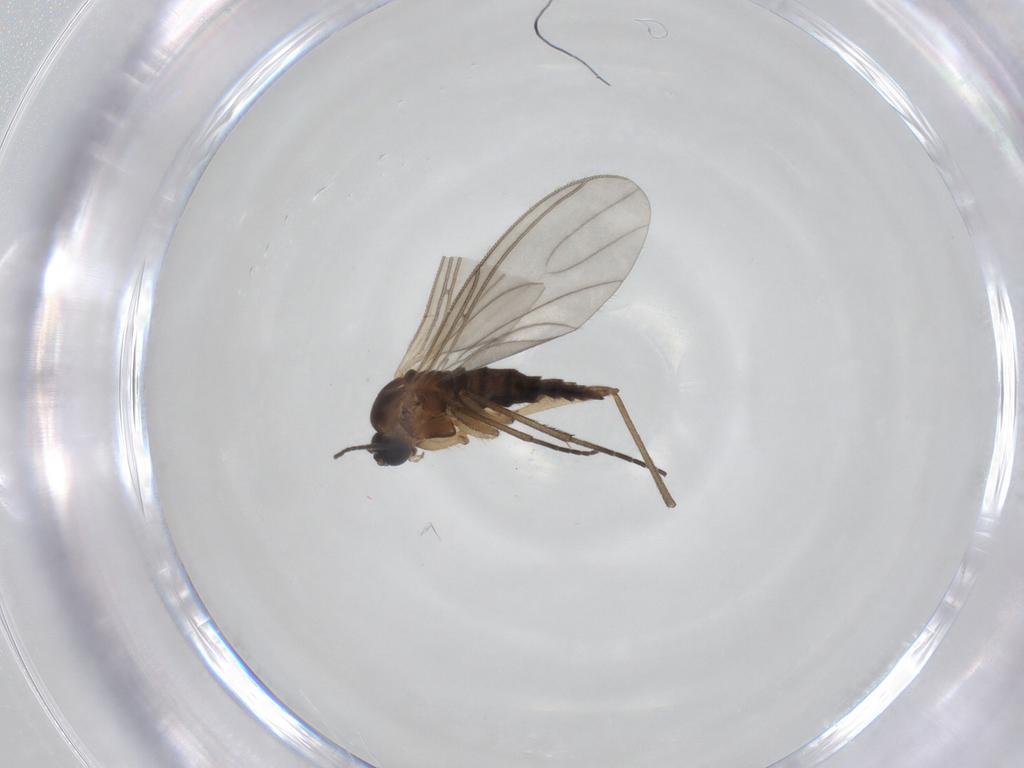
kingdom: Animalia
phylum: Arthropoda
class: Insecta
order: Diptera
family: Sciaridae
